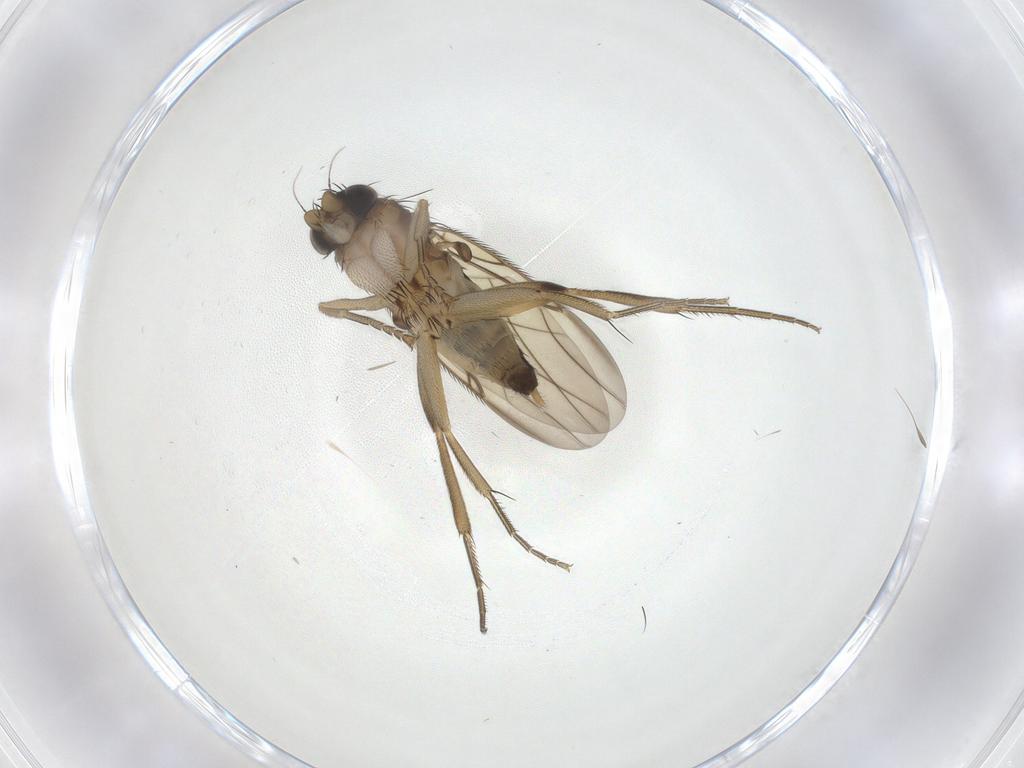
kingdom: Animalia
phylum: Arthropoda
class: Insecta
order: Diptera
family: Phoridae
